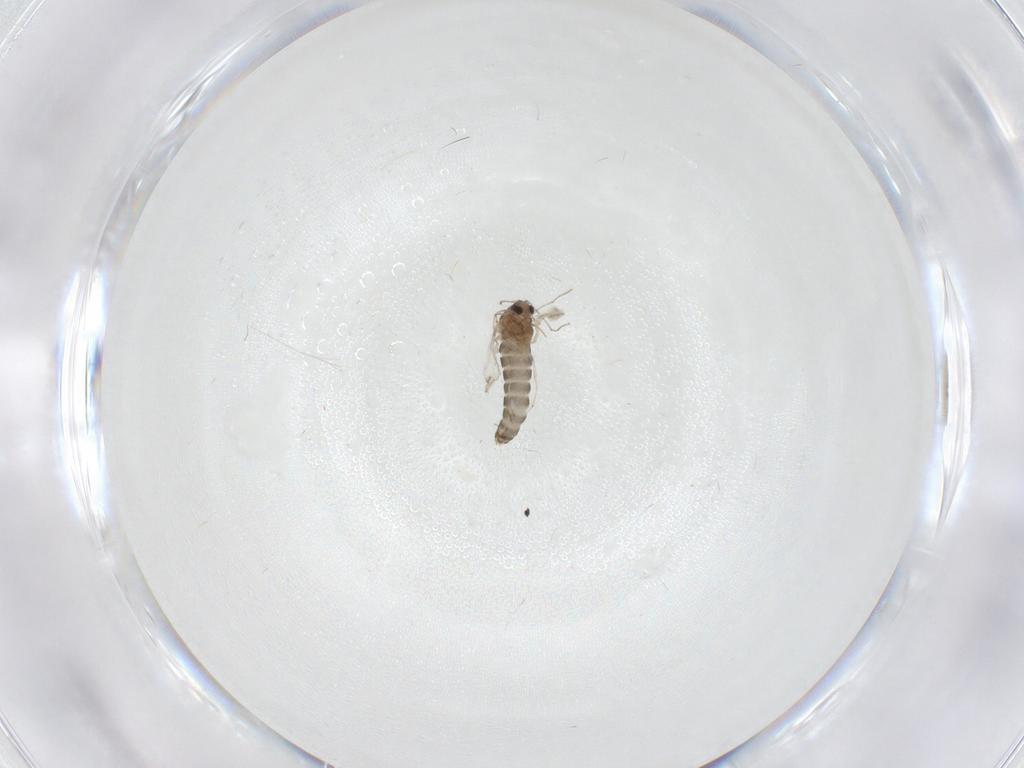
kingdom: Animalia
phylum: Arthropoda
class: Insecta
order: Diptera
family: Chironomidae
